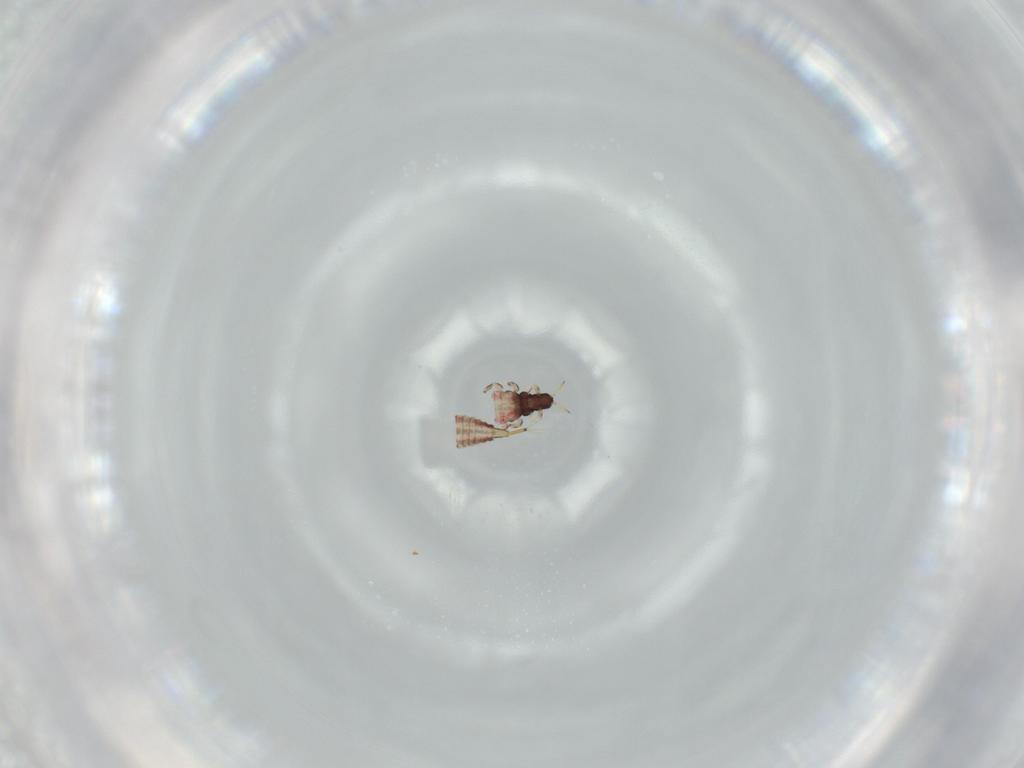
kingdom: Animalia
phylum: Arthropoda
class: Insecta
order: Thysanoptera
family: Phlaeothripidae
